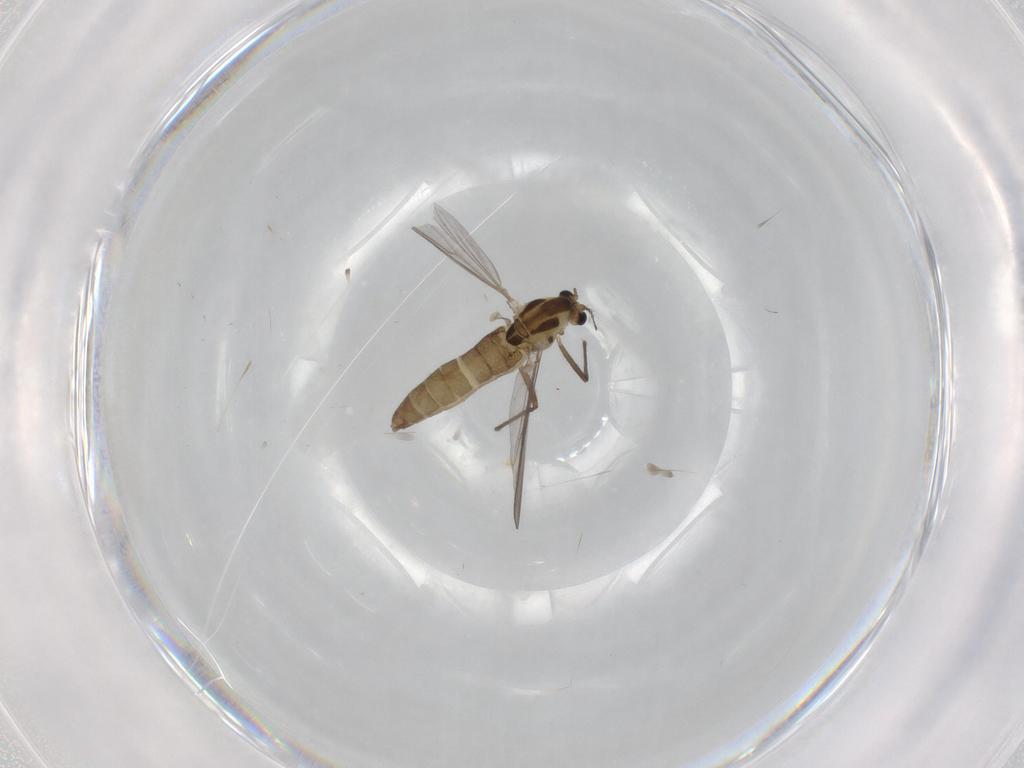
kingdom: Animalia
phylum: Arthropoda
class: Insecta
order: Diptera
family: Chironomidae
